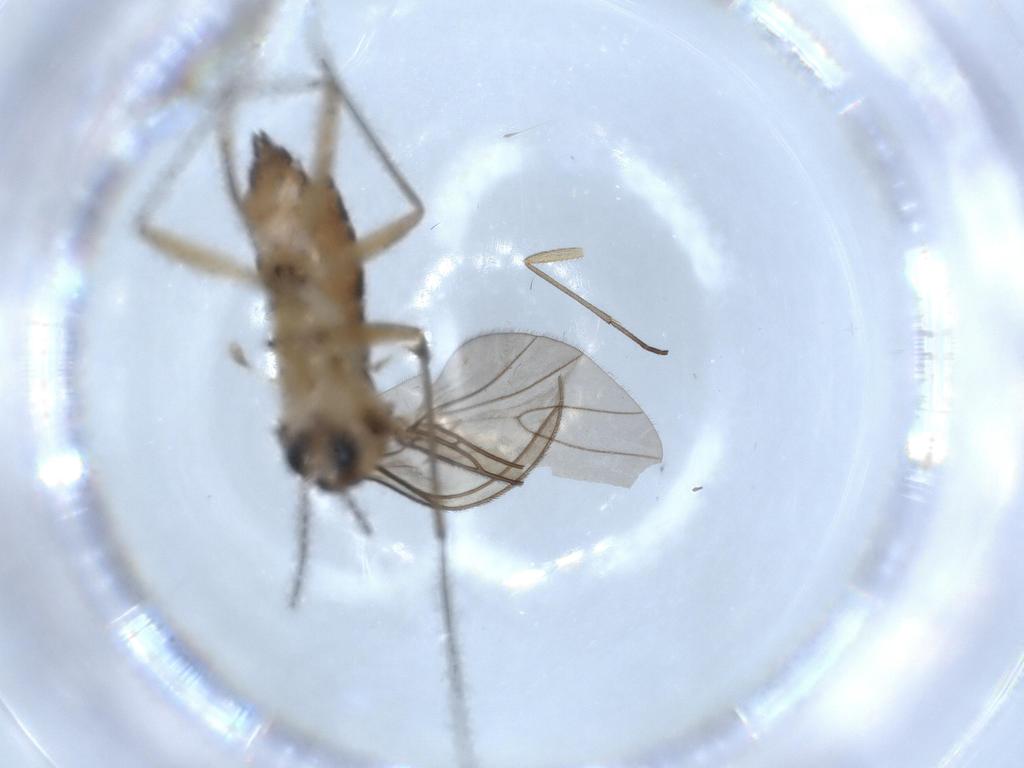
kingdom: Animalia
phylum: Arthropoda
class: Insecta
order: Diptera
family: Sciaridae
